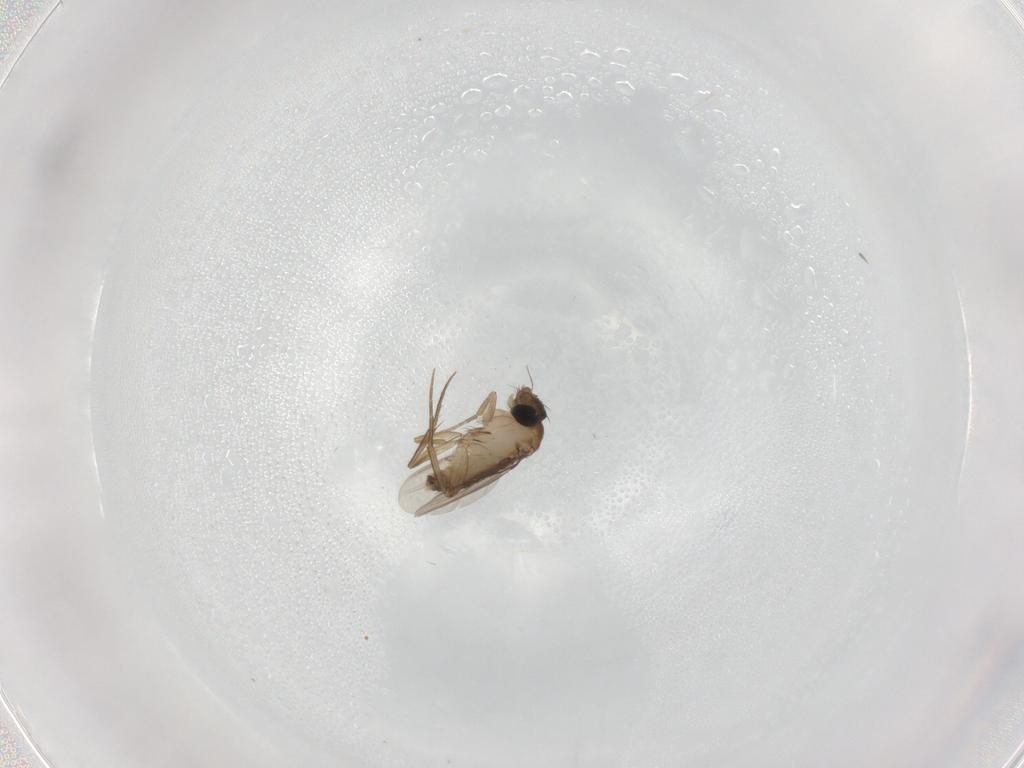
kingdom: Animalia
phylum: Arthropoda
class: Insecta
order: Diptera
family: Phoridae
